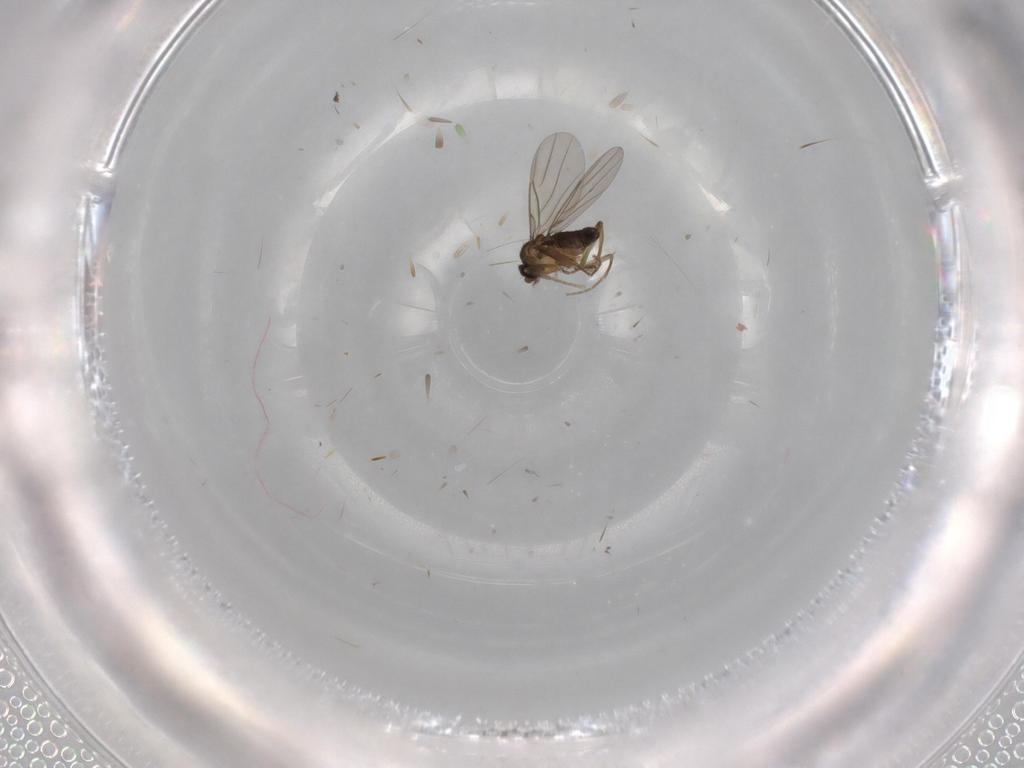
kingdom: Animalia
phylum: Arthropoda
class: Insecta
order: Diptera
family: Phoridae
